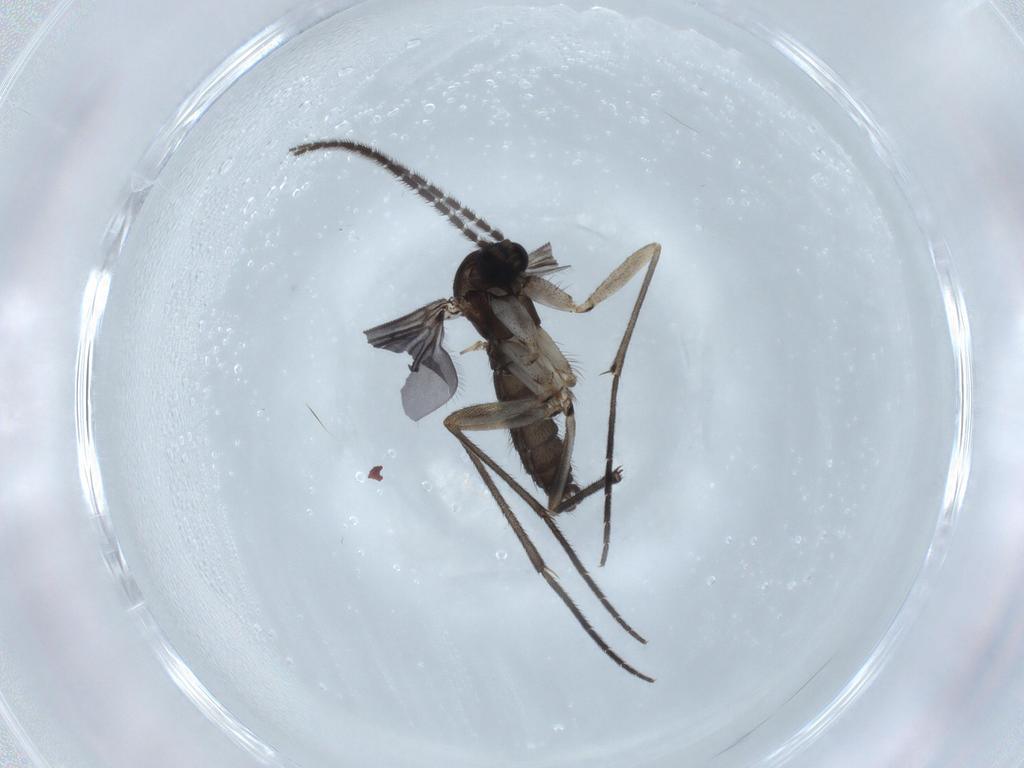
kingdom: Animalia
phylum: Arthropoda
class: Insecta
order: Diptera
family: Sciaridae
